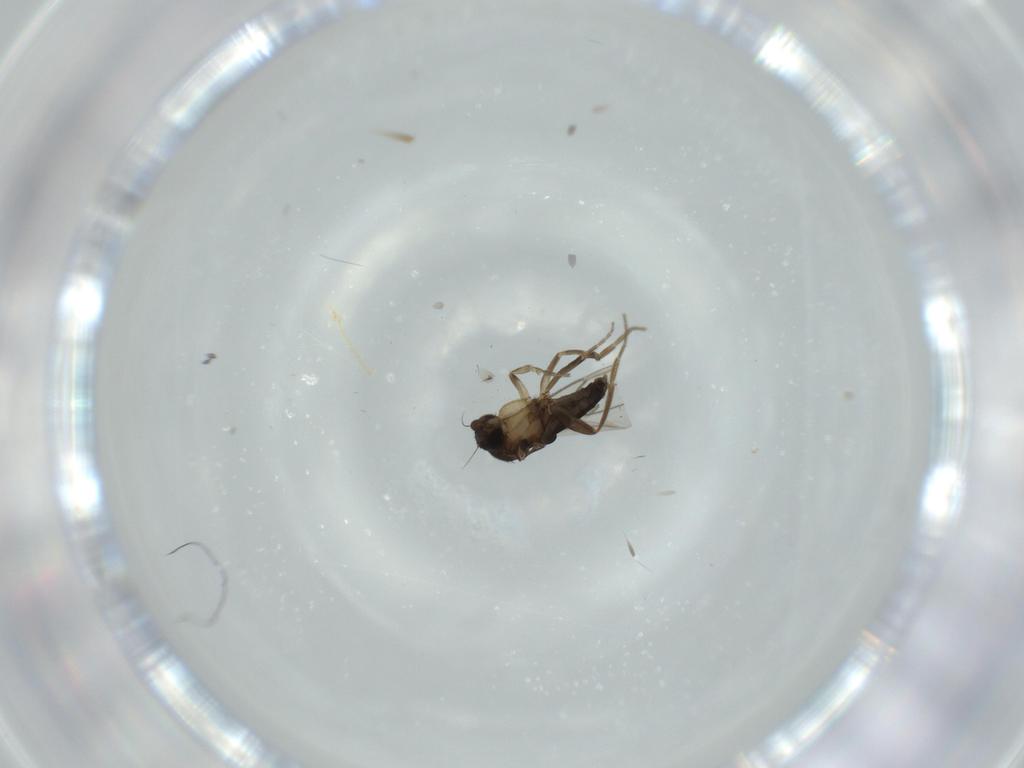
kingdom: Animalia
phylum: Arthropoda
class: Insecta
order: Diptera
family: Phoridae
